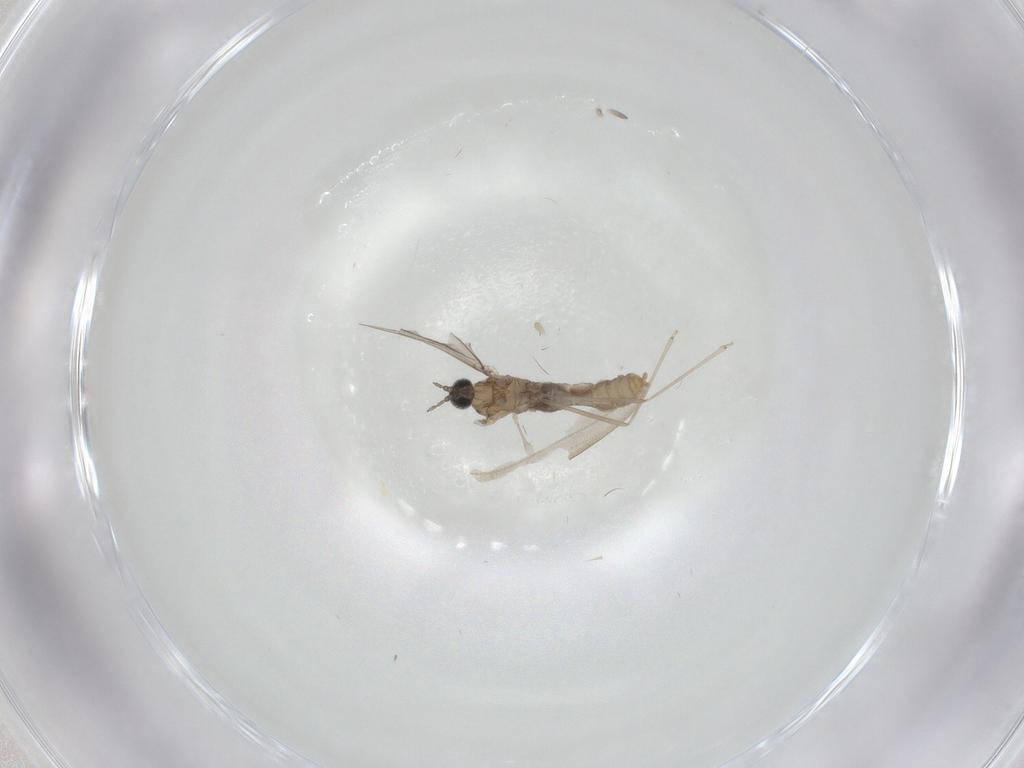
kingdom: Animalia
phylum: Arthropoda
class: Insecta
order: Diptera
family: Limoniidae
